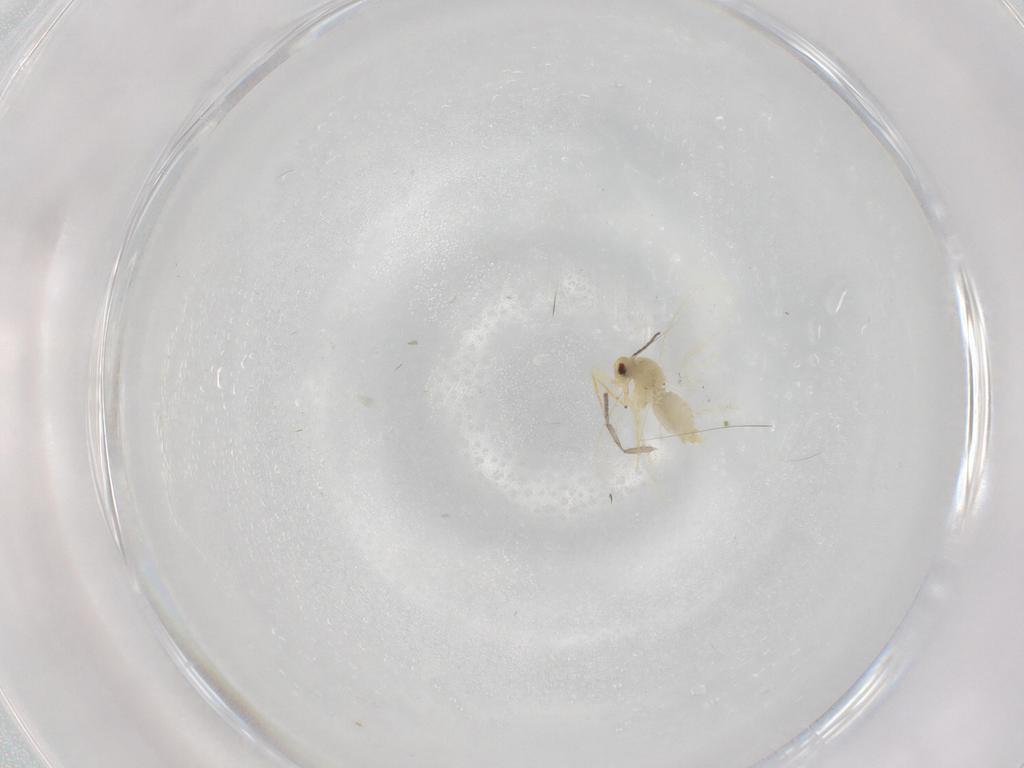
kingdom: Animalia
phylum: Arthropoda
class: Insecta
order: Hemiptera
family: Aleyrodidae
